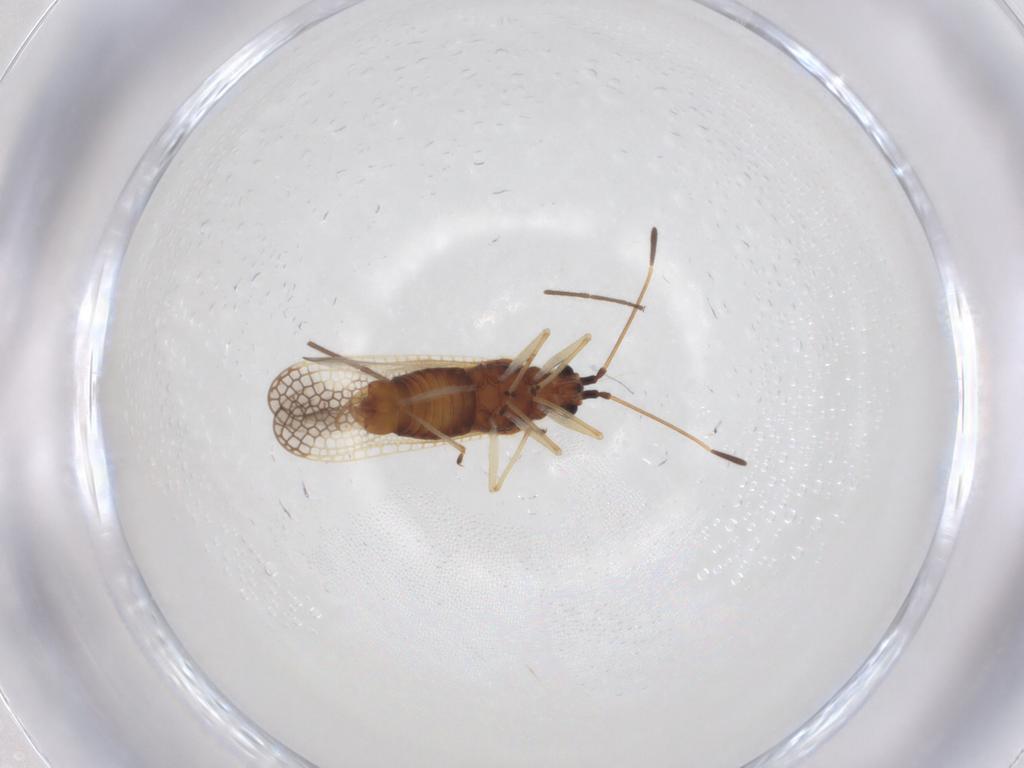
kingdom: Animalia
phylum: Arthropoda
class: Insecta
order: Hemiptera
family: Tingidae
